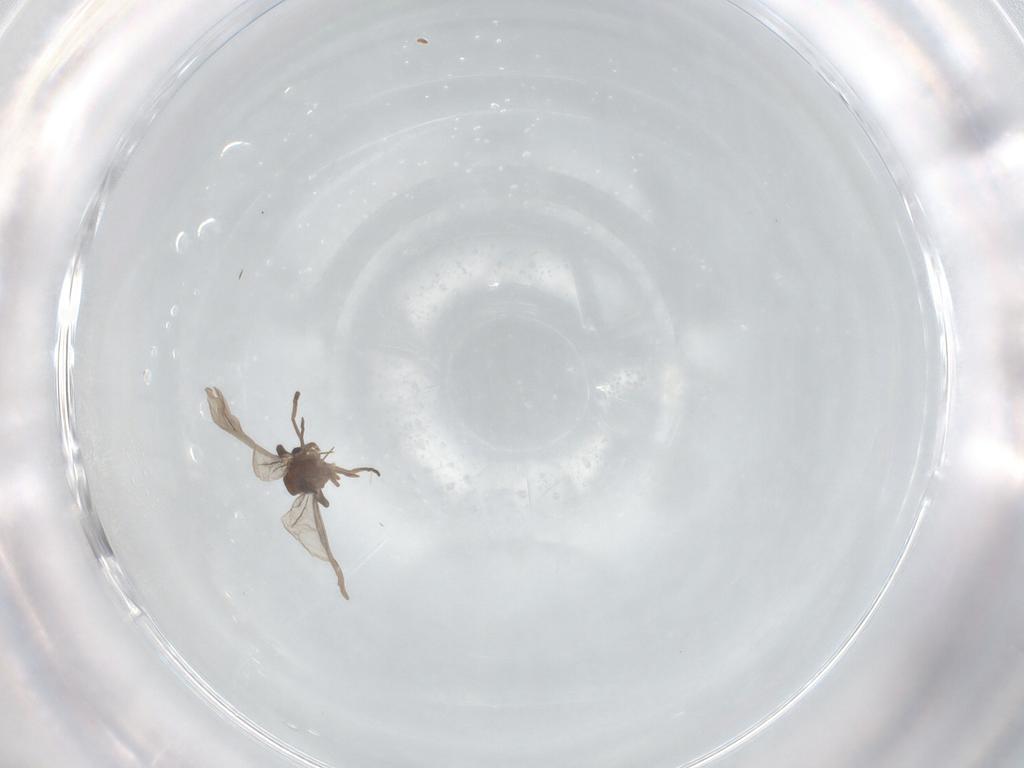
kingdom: Animalia
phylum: Arthropoda
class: Insecta
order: Strepsiptera
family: Myrmecolacidae
